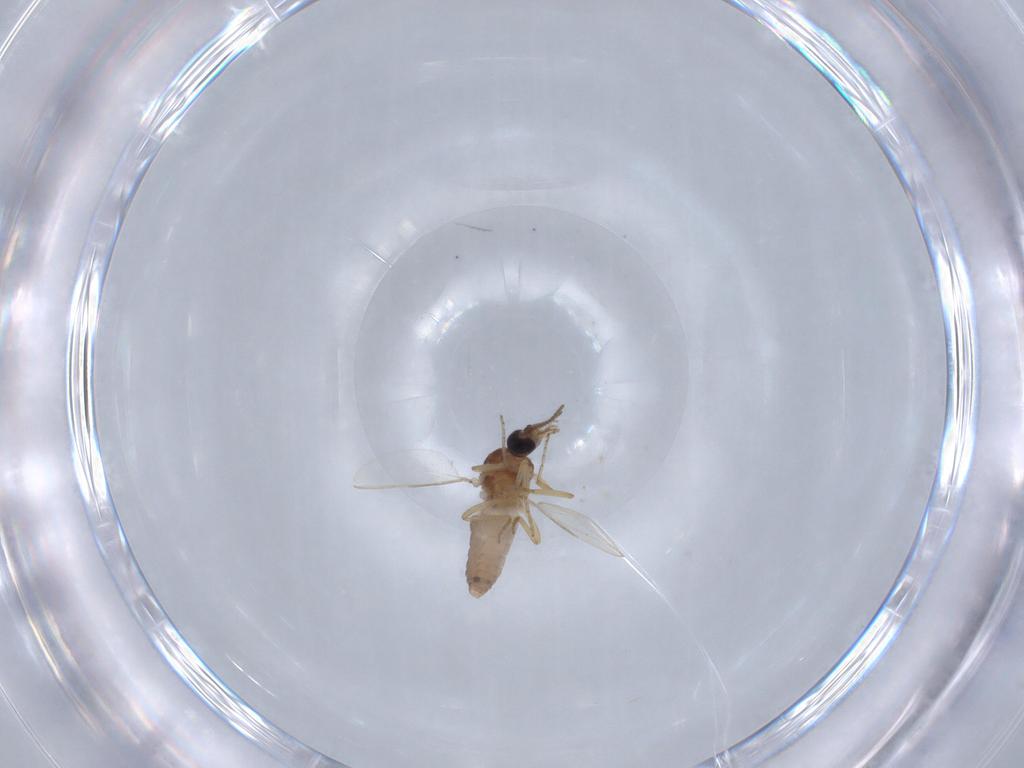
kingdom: Animalia
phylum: Arthropoda
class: Insecta
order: Diptera
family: Ceratopogonidae
